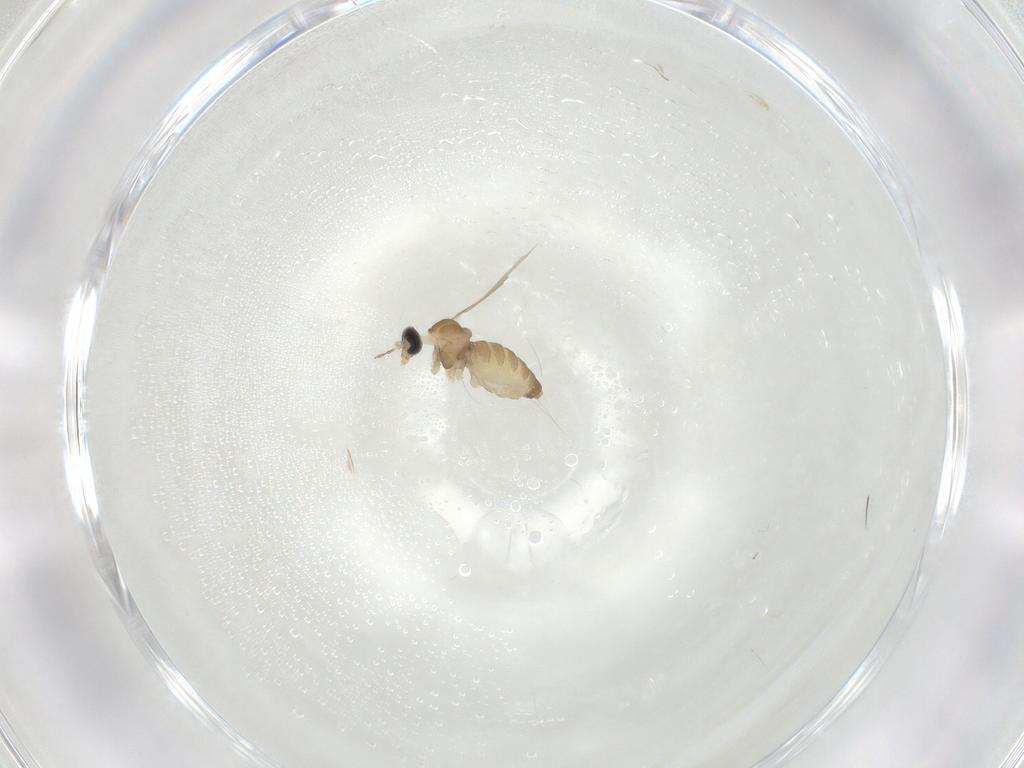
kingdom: Animalia
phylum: Arthropoda
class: Insecta
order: Diptera
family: Cecidomyiidae
